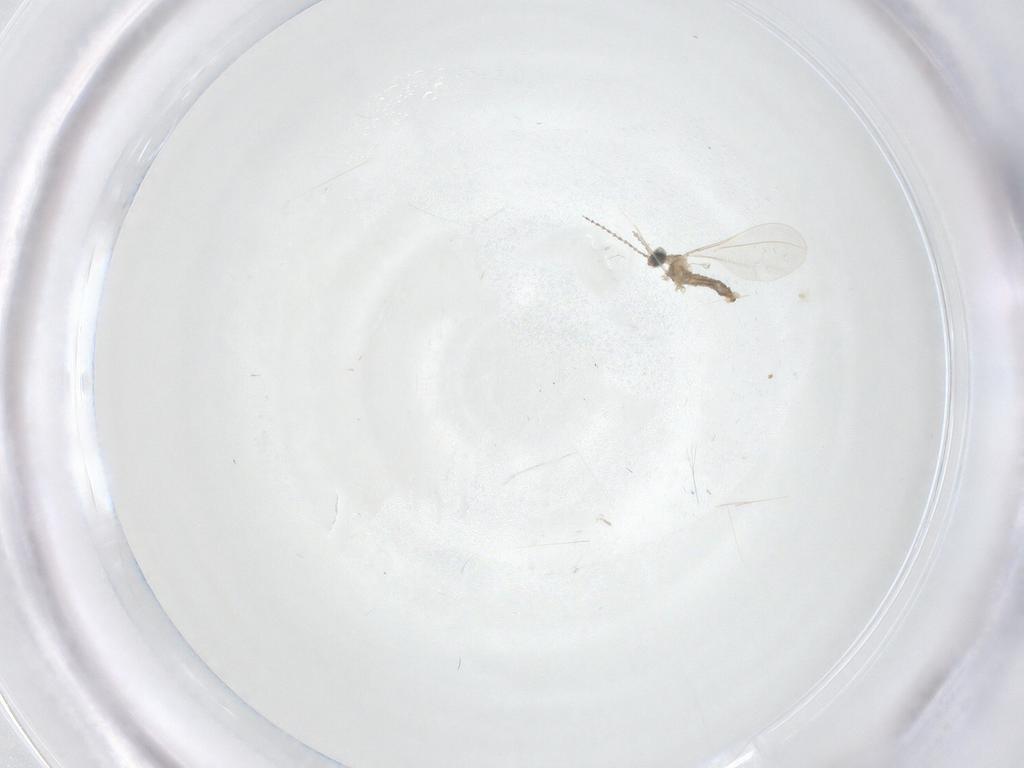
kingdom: Animalia
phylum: Arthropoda
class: Insecta
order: Diptera
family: Cecidomyiidae
